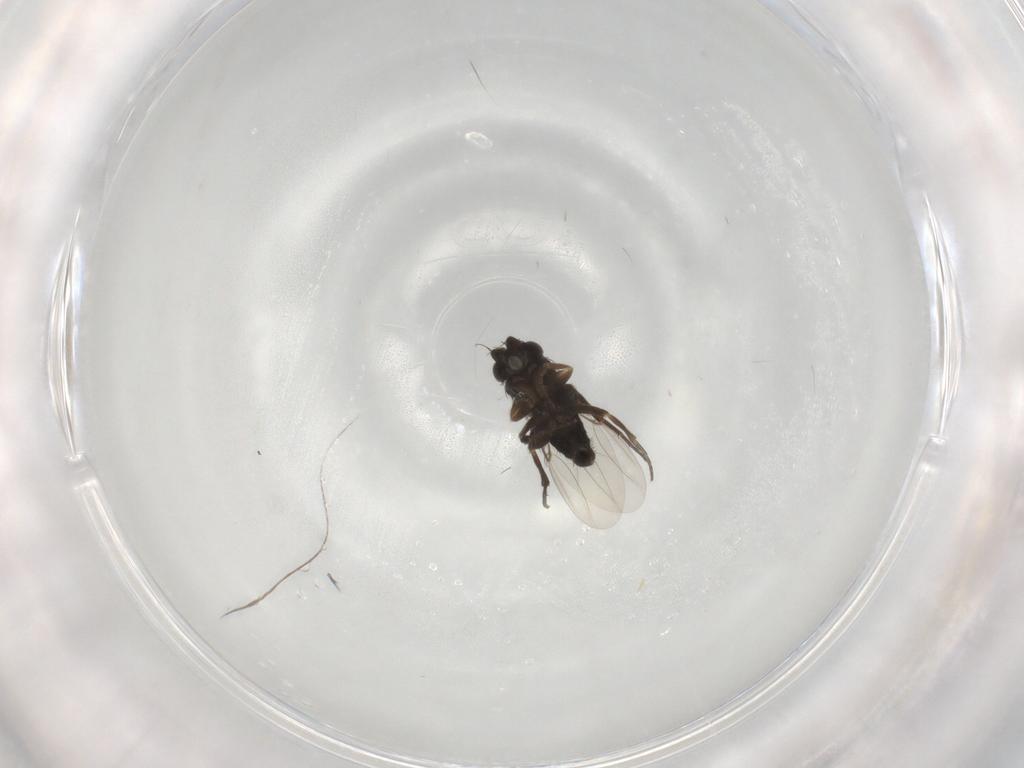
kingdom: Animalia
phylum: Arthropoda
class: Insecta
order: Diptera
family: Phoridae
